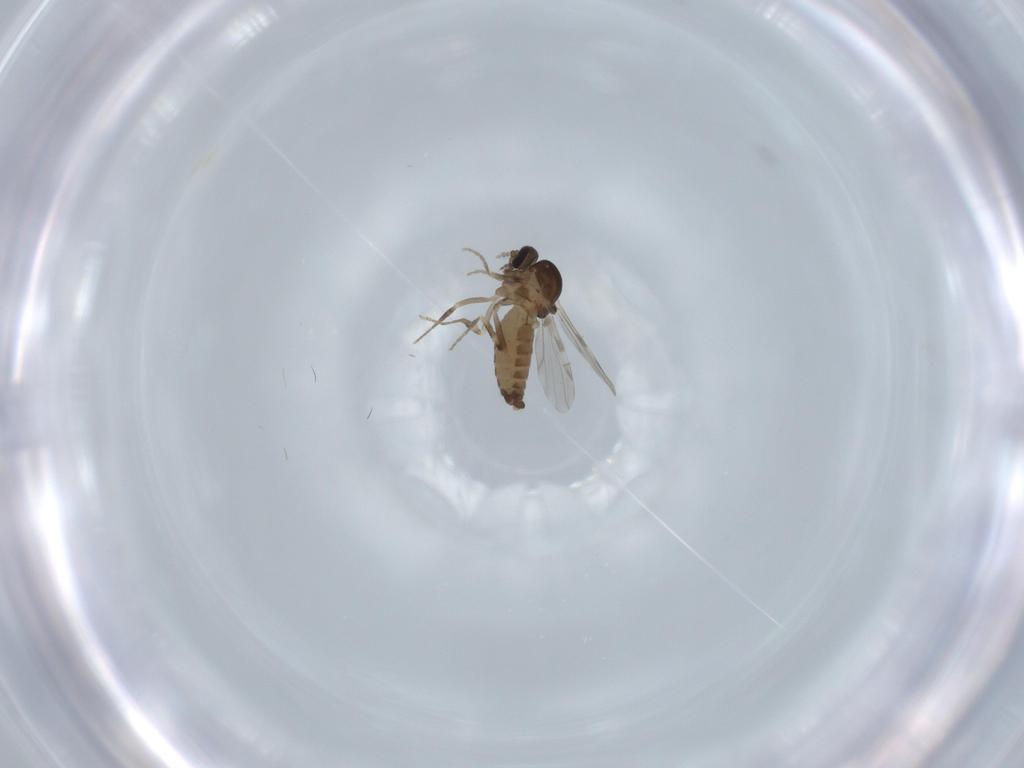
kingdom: Animalia
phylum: Arthropoda
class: Insecta
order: Diptera
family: Ceratopogonidae
